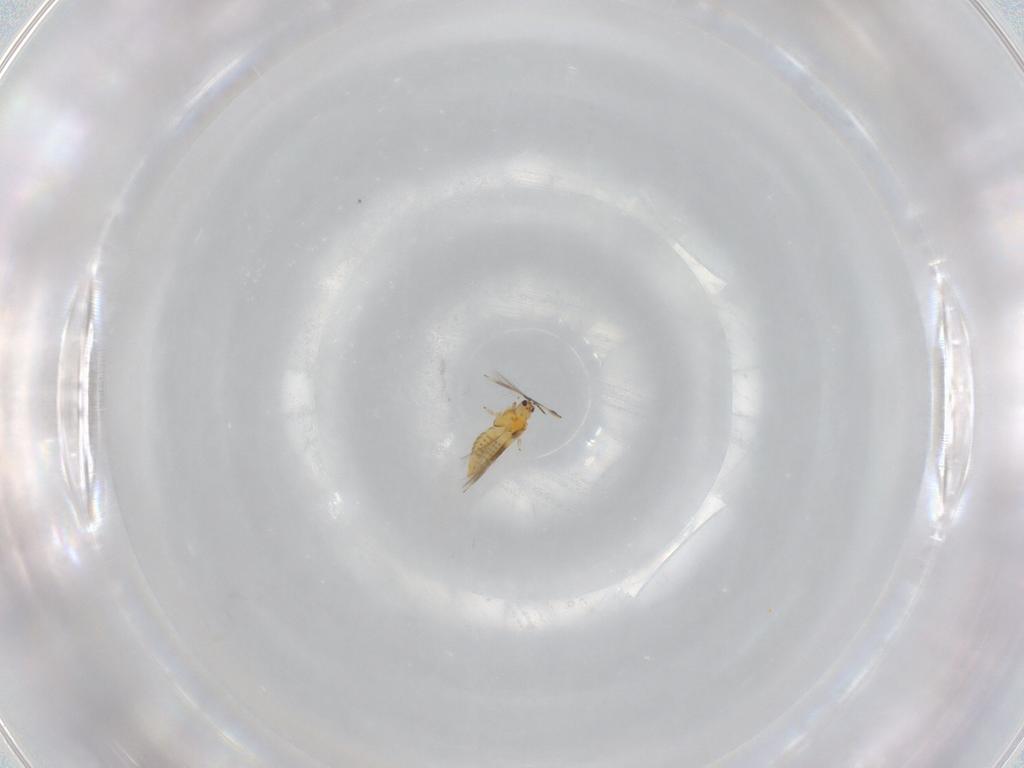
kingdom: Animalia
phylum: Arthropoda
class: Insecta
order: Thysanoptera
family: Thripidae
